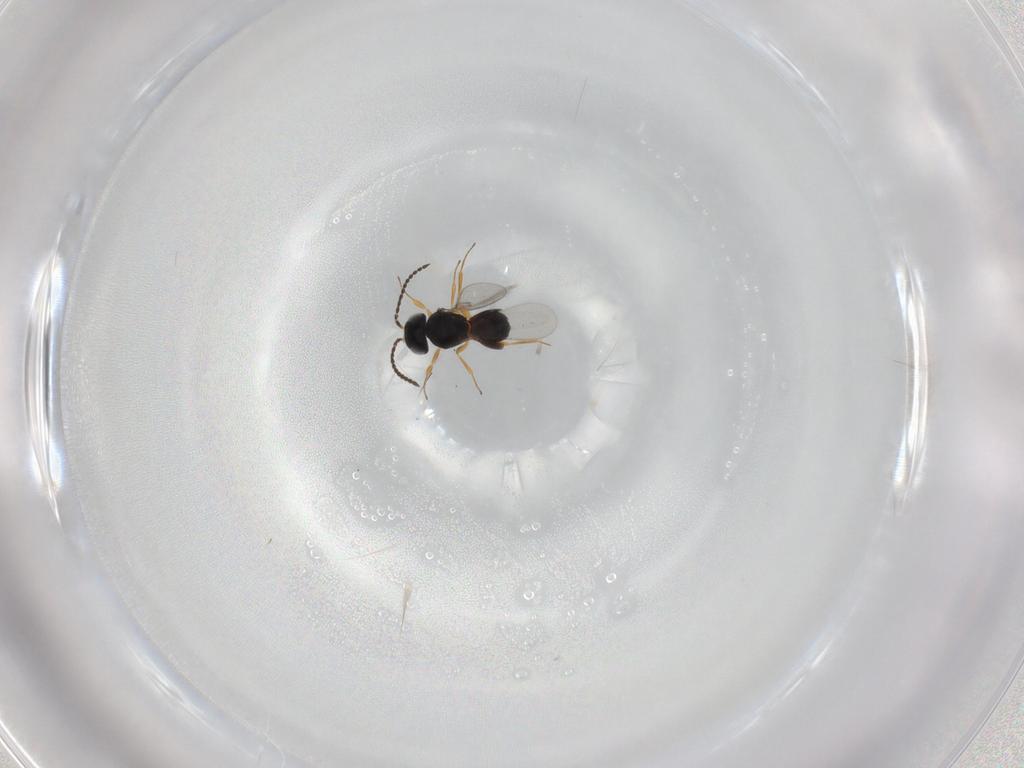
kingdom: Animalia
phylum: Arthropoda
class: Insecta
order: Hymenoptera
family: Scelionidae
